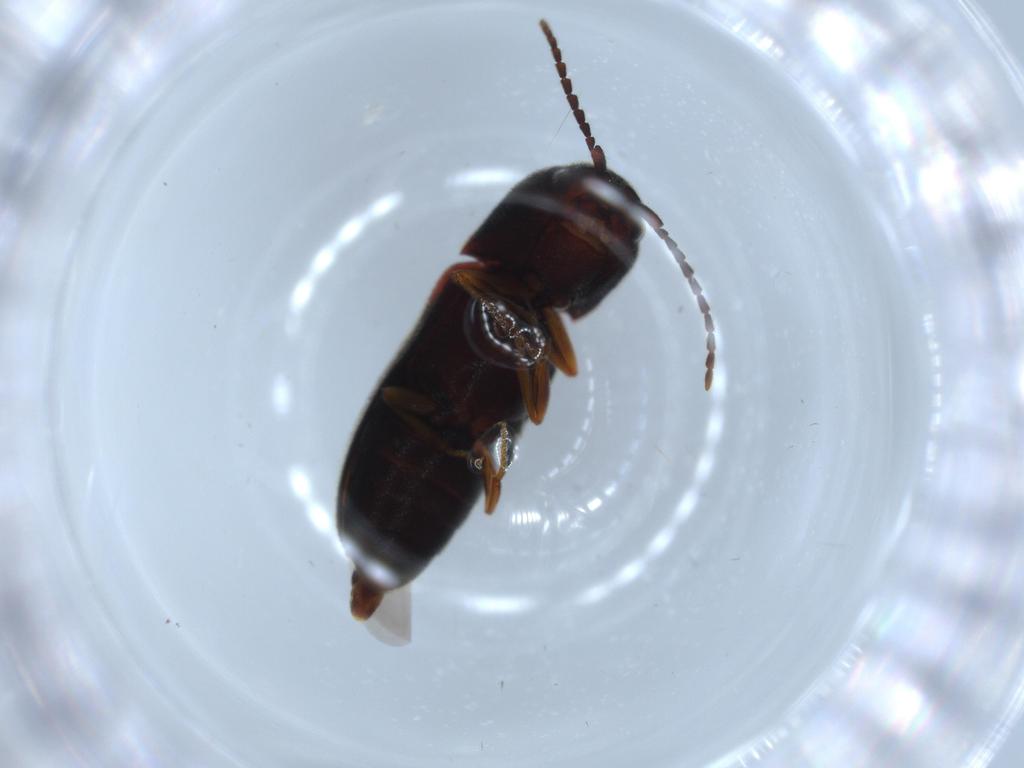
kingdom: Animalia
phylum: Arthropoda
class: Insecta
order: Coleoptera
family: Eucnemidae
